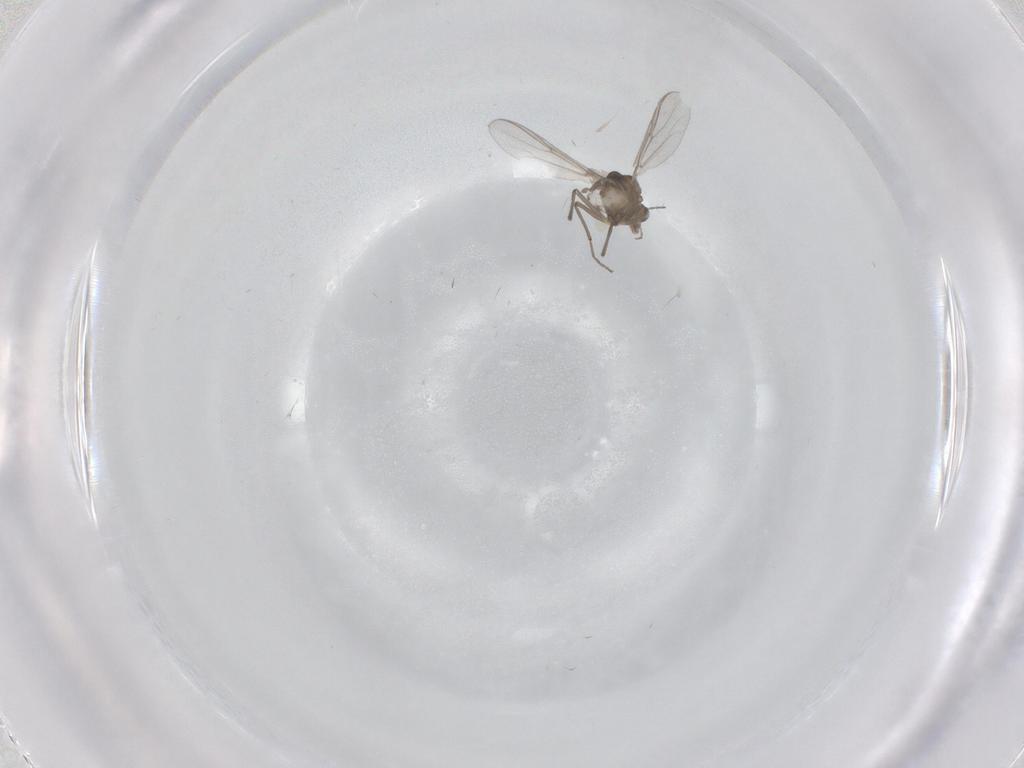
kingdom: Animalia
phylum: Arthropoda
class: Insecta
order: Diptera
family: Chironomidae
